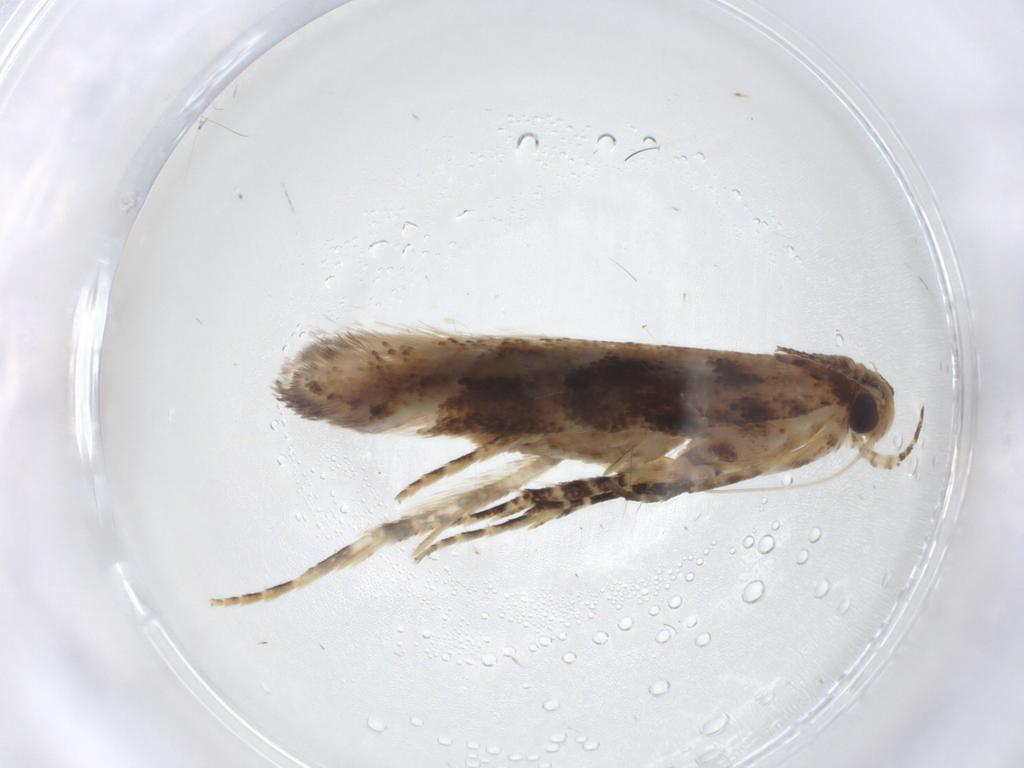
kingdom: Animalia
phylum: Arthropoda
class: Insecta
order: Lepidoptera
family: Gelechiidae
